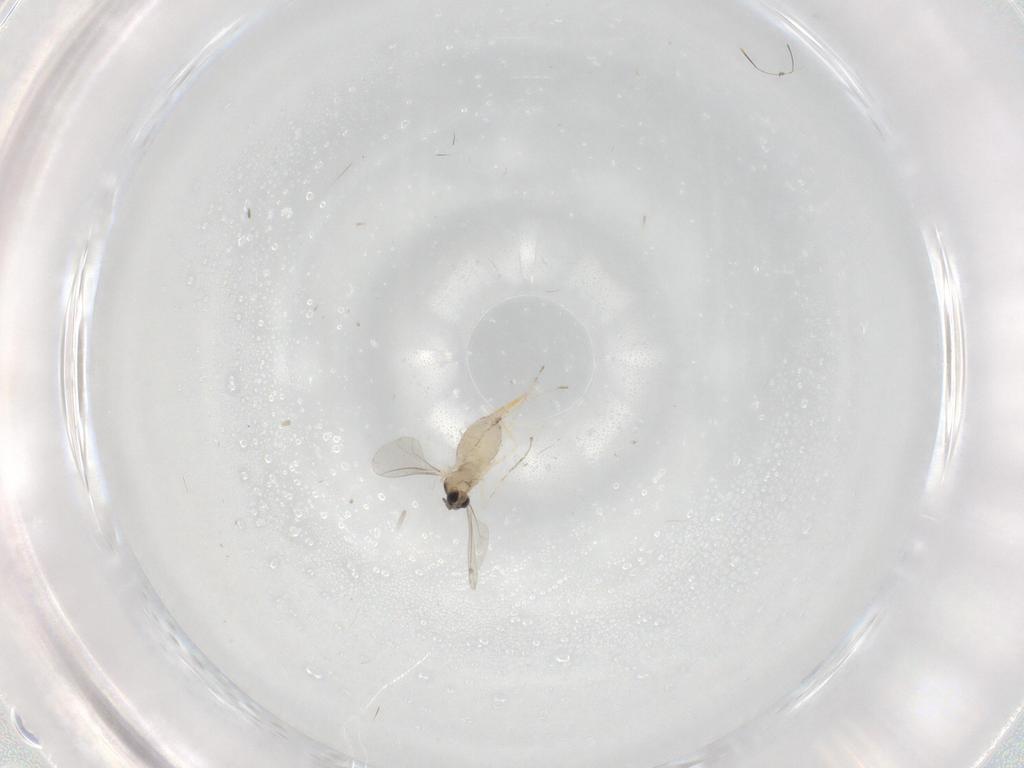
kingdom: Animalia
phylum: Arthropoda
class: Insecta
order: Diptera
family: Cecidomyiidae
